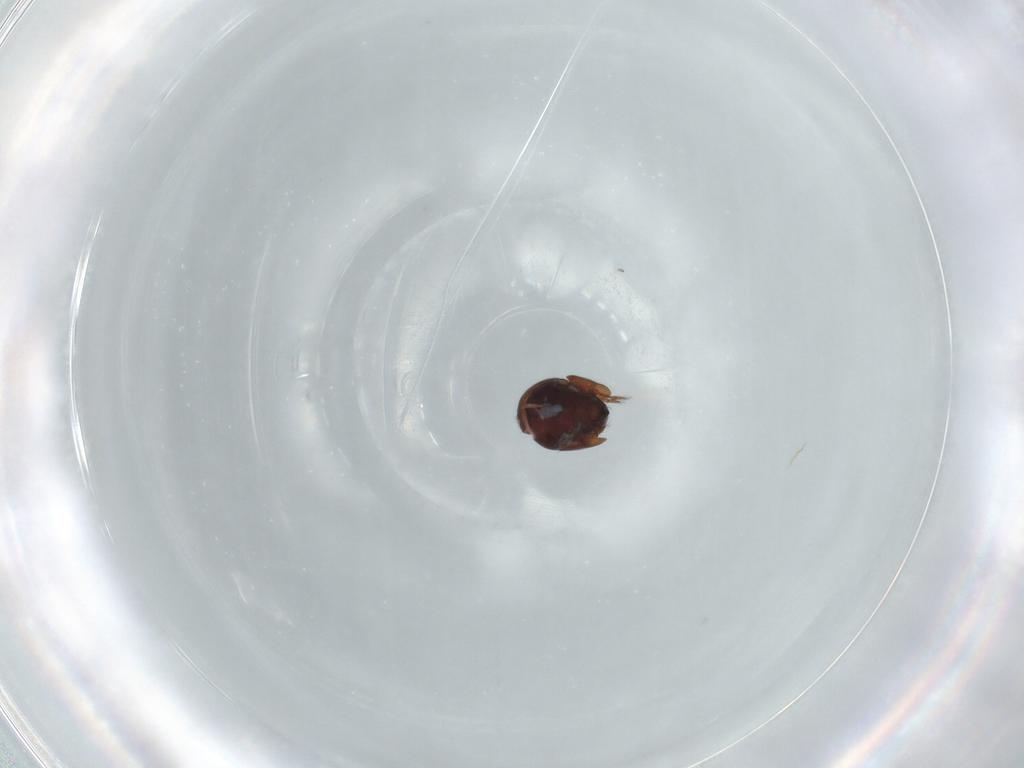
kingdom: Animalia
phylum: Arthropoda
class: Arachnida
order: Sarcoptiformes
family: Galumnidae
